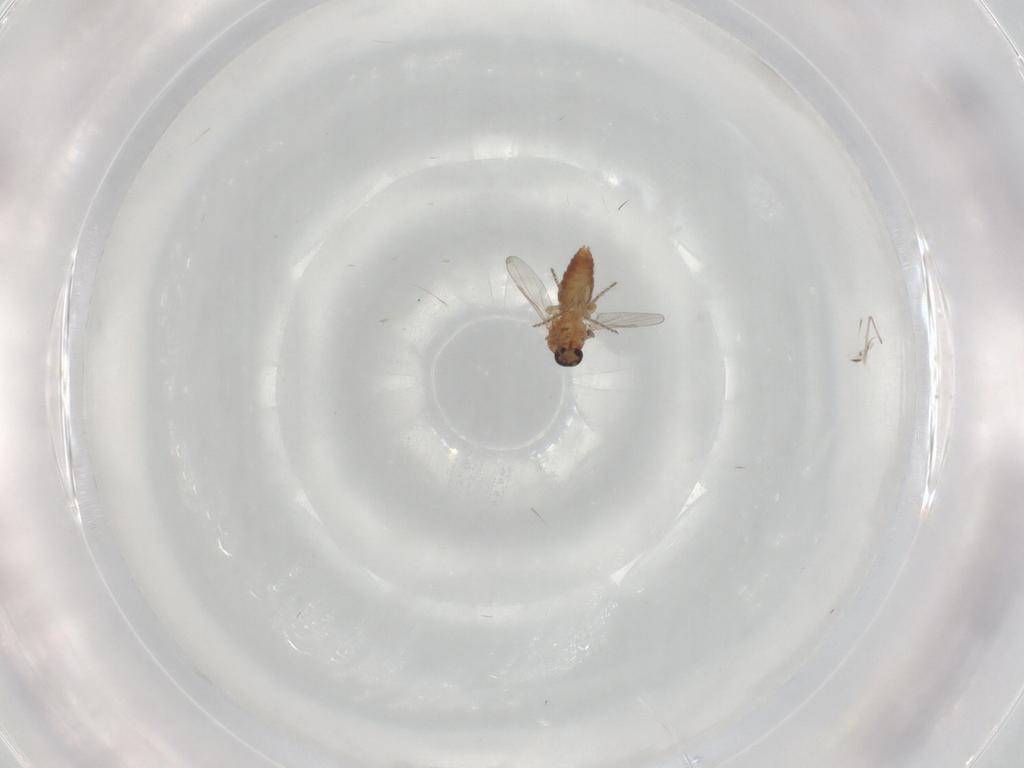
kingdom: Animalia
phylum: Arthropoda
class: Insecta
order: Diptera
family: Ceratopogonidae
